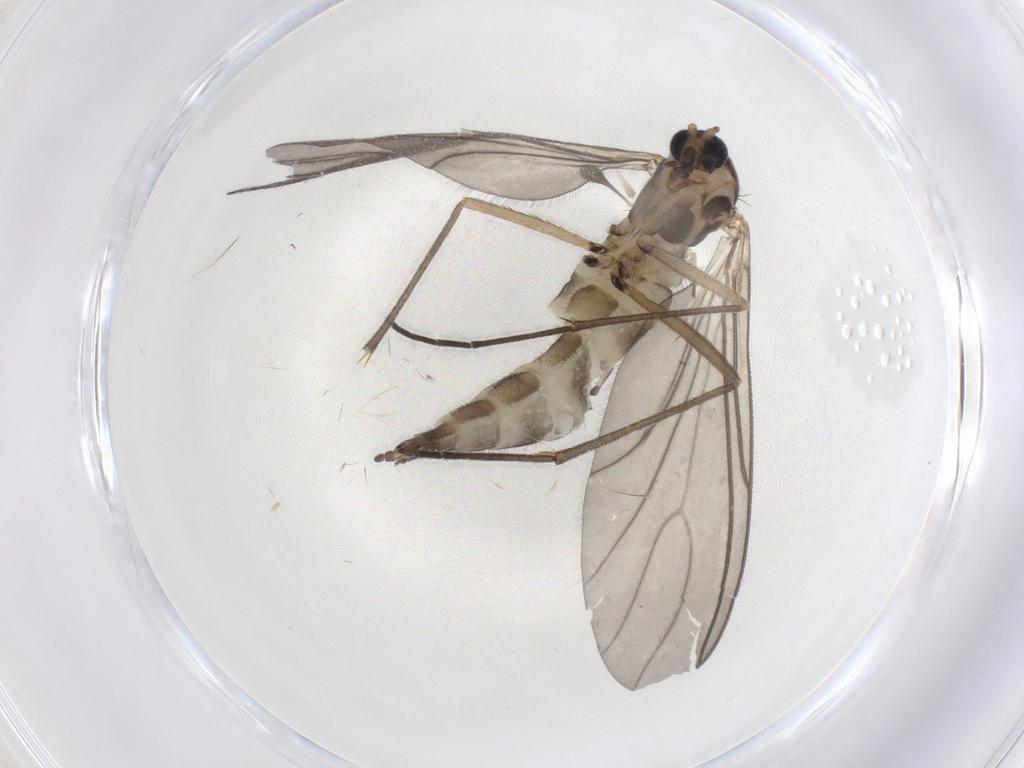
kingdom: Animalia
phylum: Arthropoda
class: Insecta
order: Diptera
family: Sciaridae
